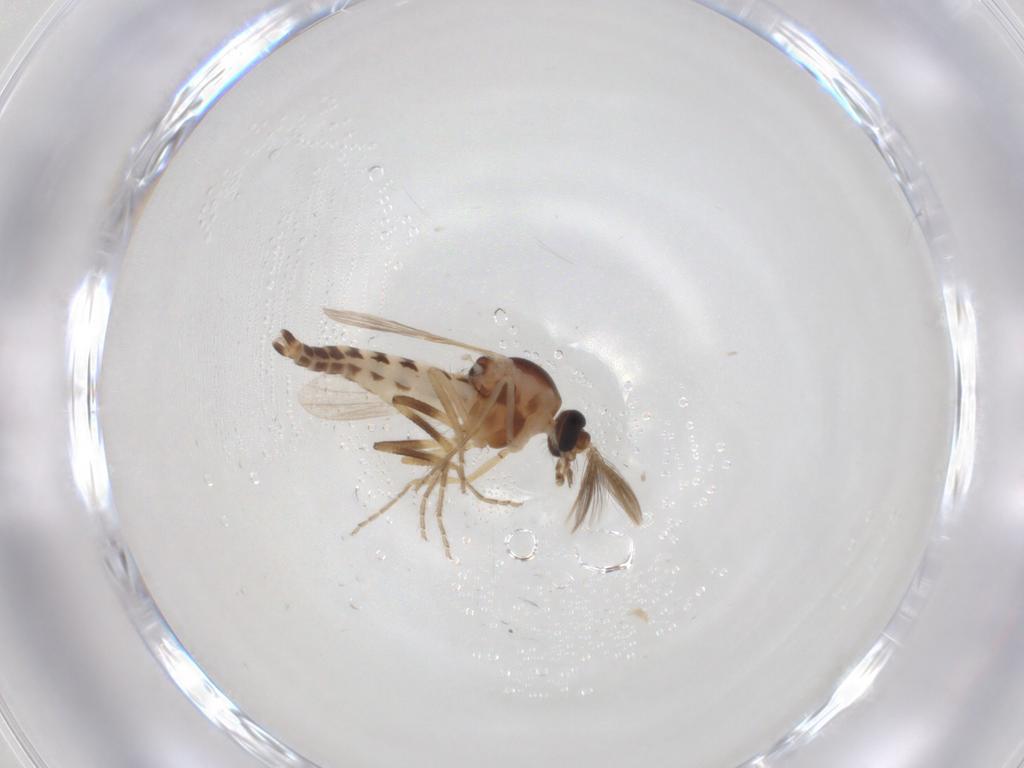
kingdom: Animalia
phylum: Arthropoda
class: Insecta
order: Diptera
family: Ceratopogonidae
